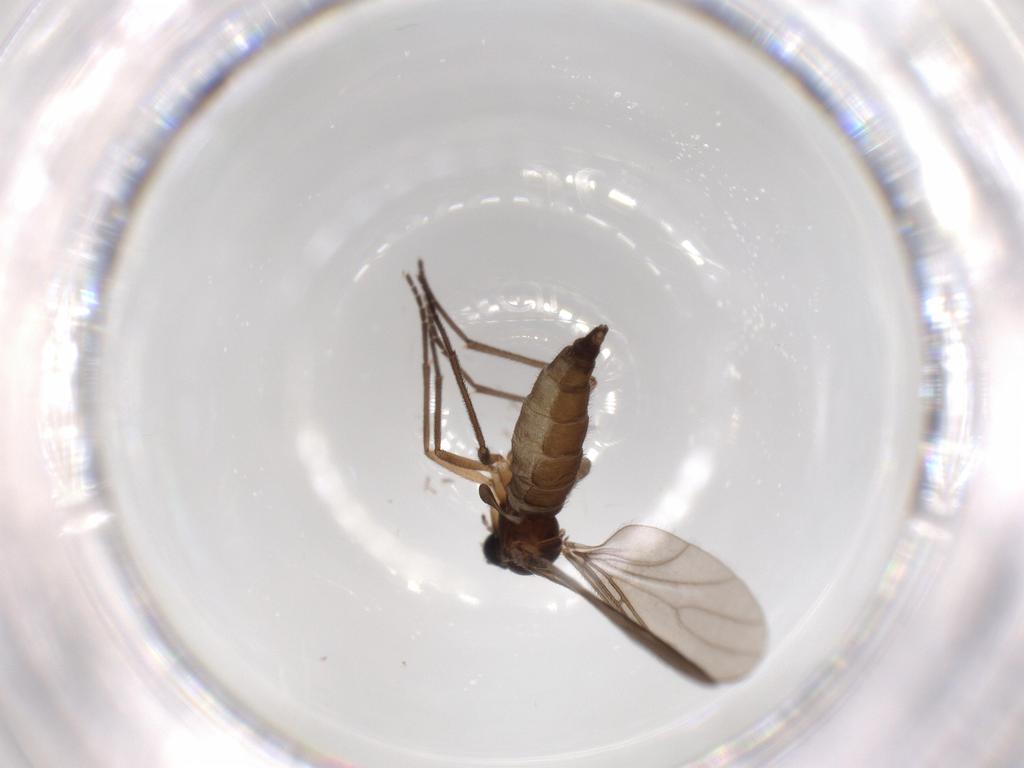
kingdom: Animalia
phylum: Arthropoda
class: Insecta
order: Diptera
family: Sciaridae
